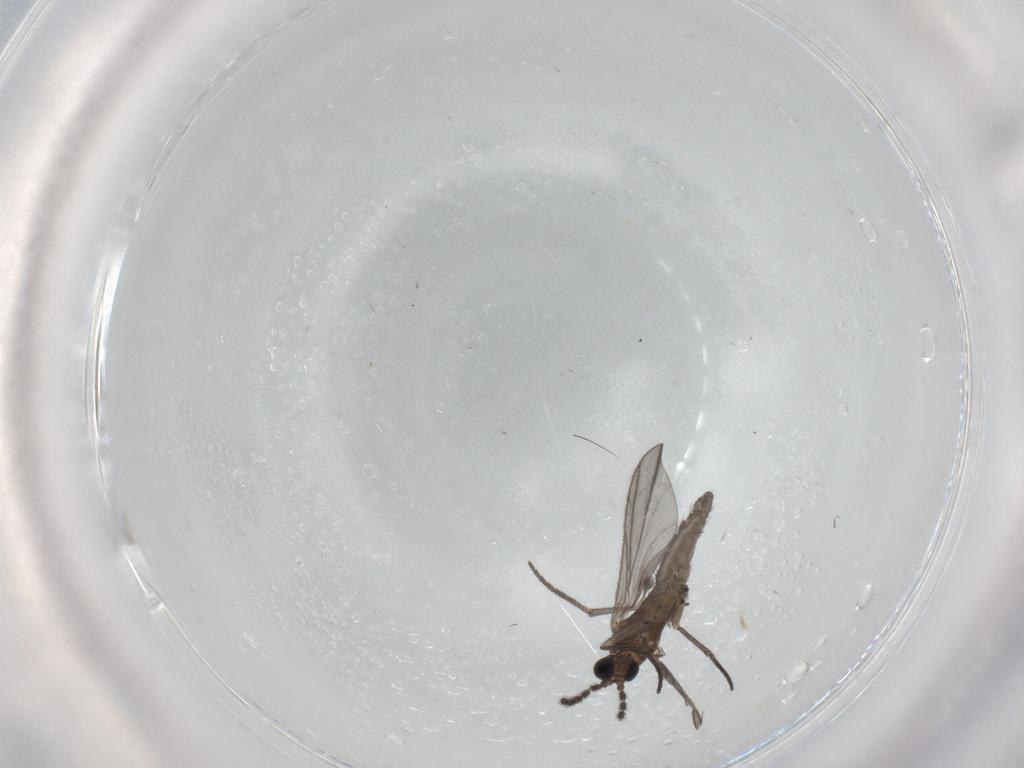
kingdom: Animalia
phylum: Arthropoda
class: Insecta
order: Diptera
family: Sciaridae
